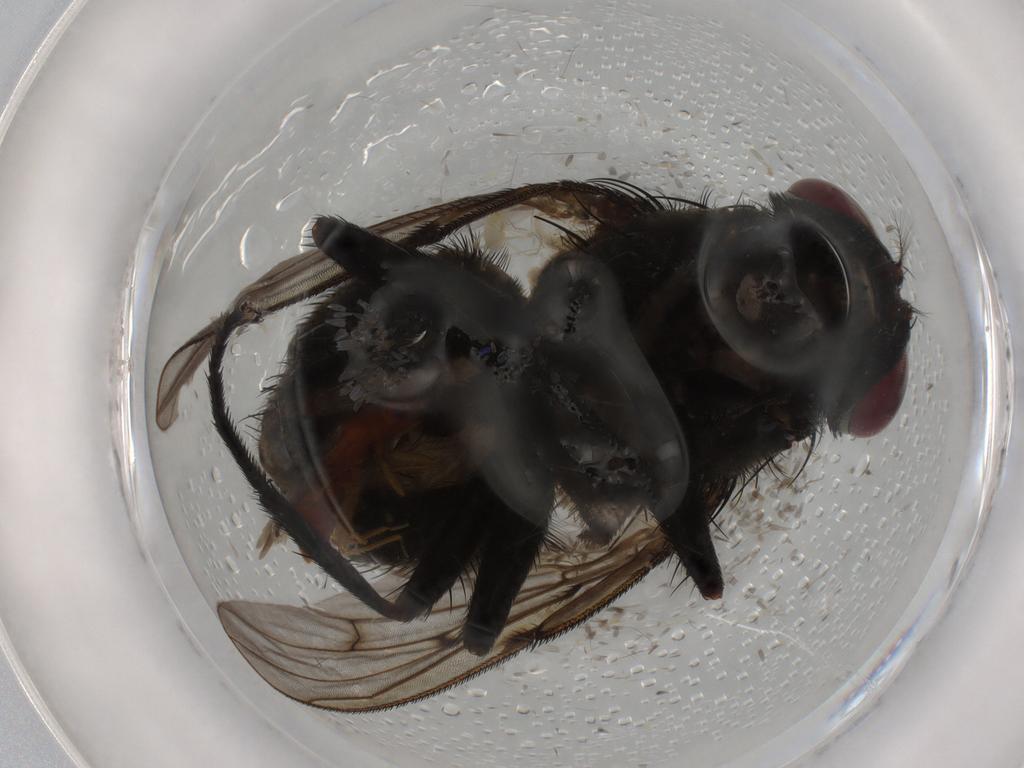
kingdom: Animalia
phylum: Arthropoda
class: Insecta
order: Diptera
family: Muscidae
